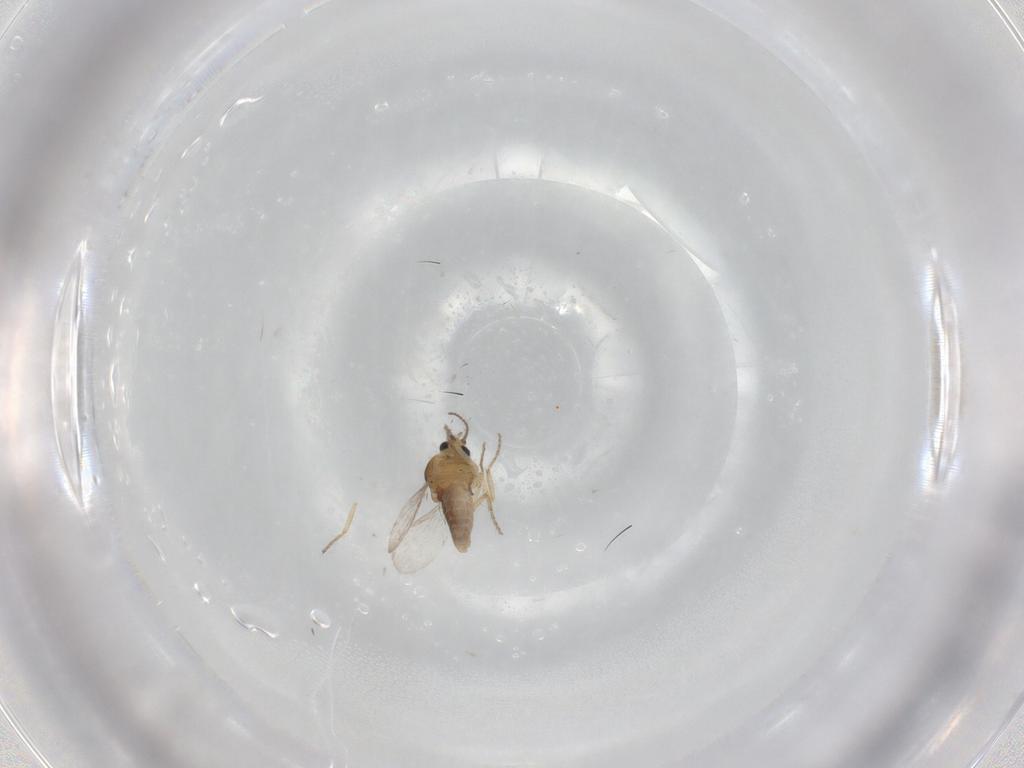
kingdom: Animalia
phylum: Arthropoda
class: Insecta
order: Diptera
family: Ceratopogonidae
